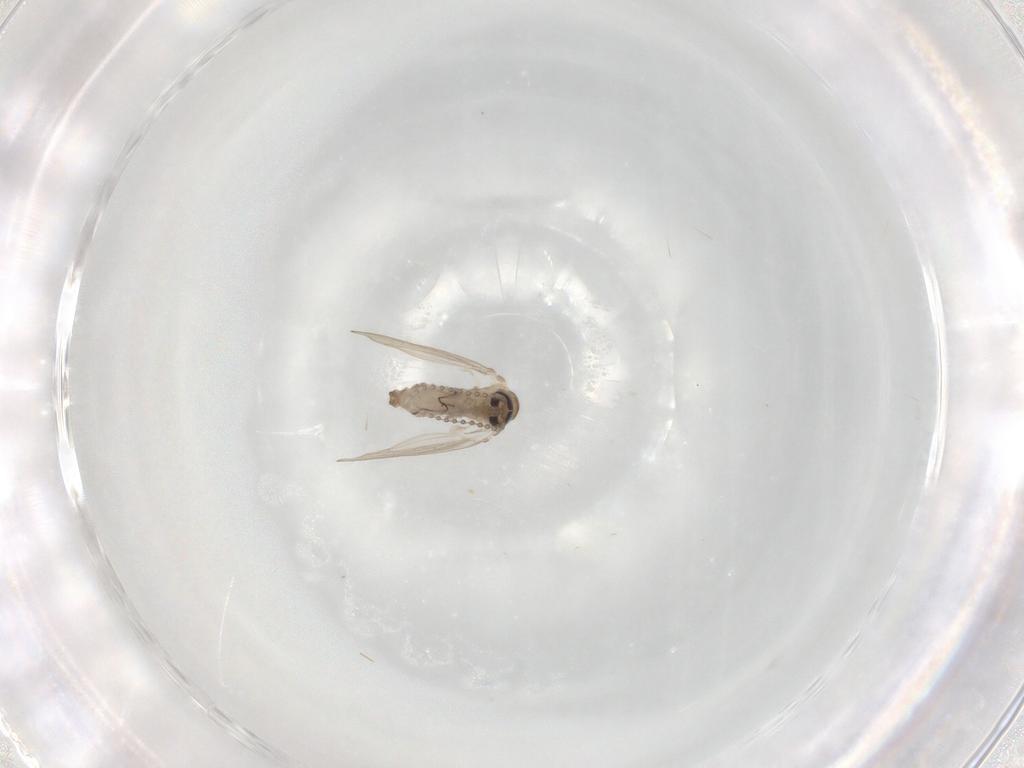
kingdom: Animalia
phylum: Arthropoda
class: Insecta
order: Diptera
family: Psychodidae
